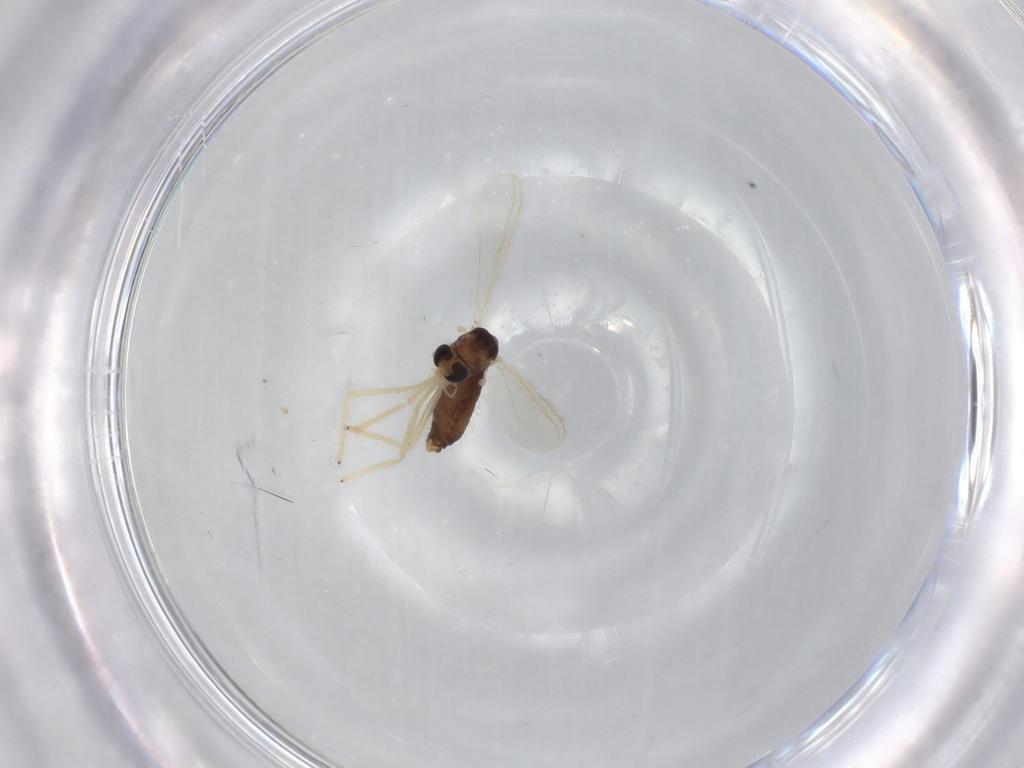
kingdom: Animalia
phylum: Arthropoda
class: Insecta
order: Diptera
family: Chironomidae
